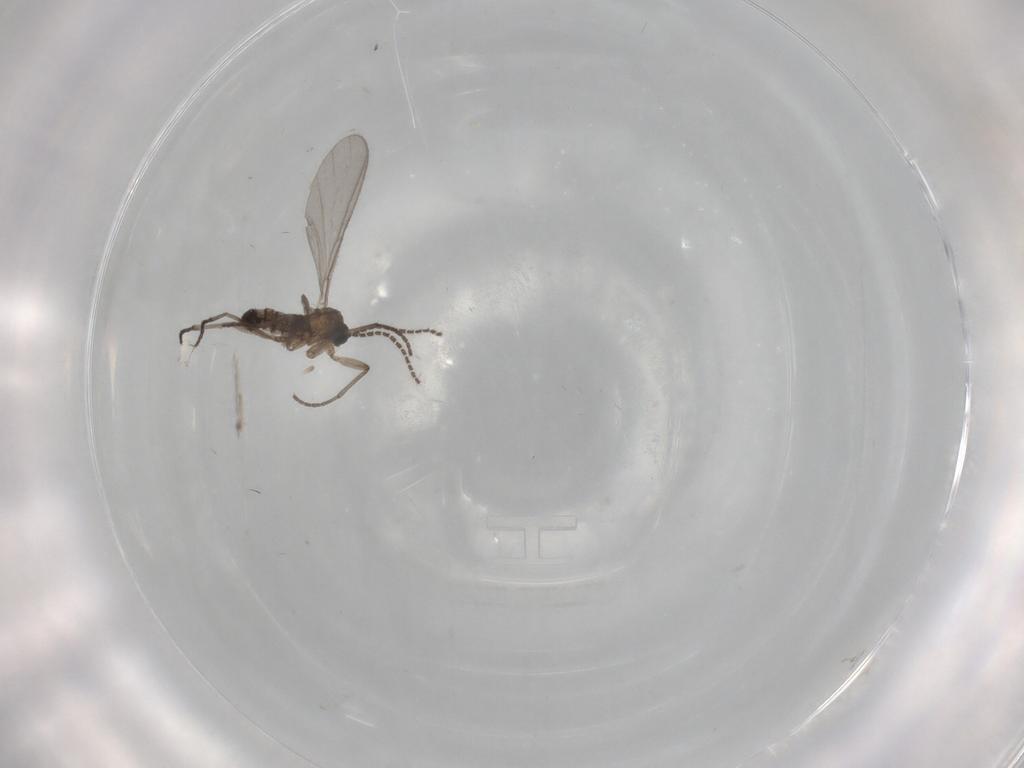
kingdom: Animalia
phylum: Arthropoda
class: Insecta
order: Diptera
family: Sciaridae
